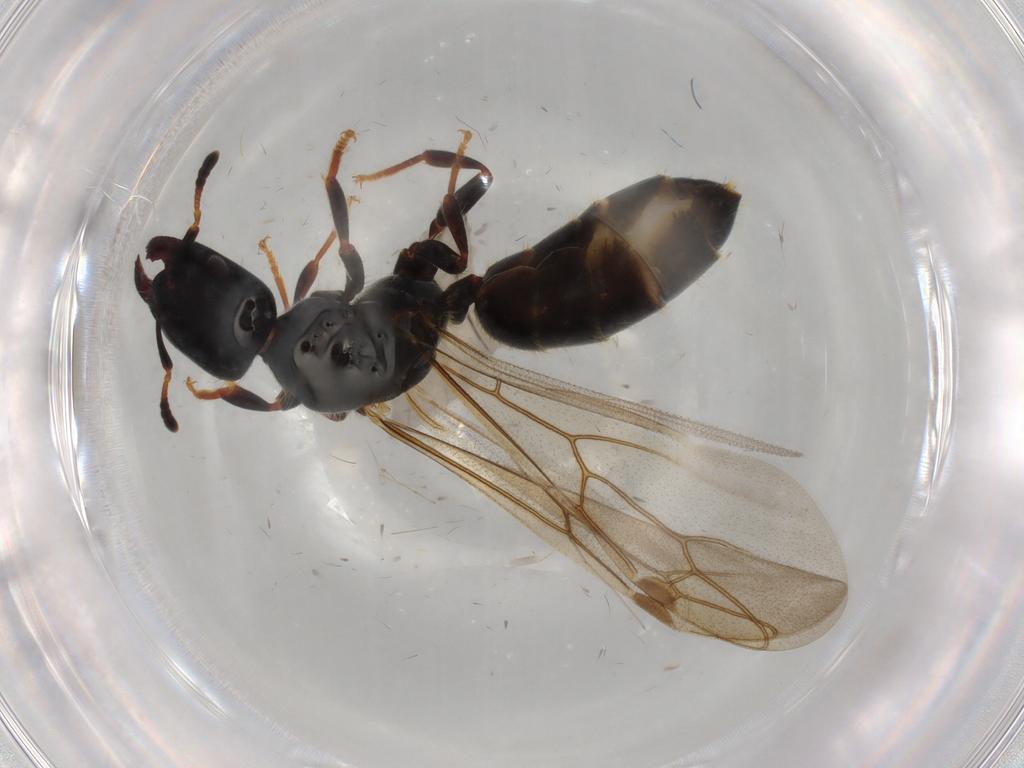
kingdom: Animalia
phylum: Arthropoda
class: Insecta
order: Hymenoptera
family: Formicidae
